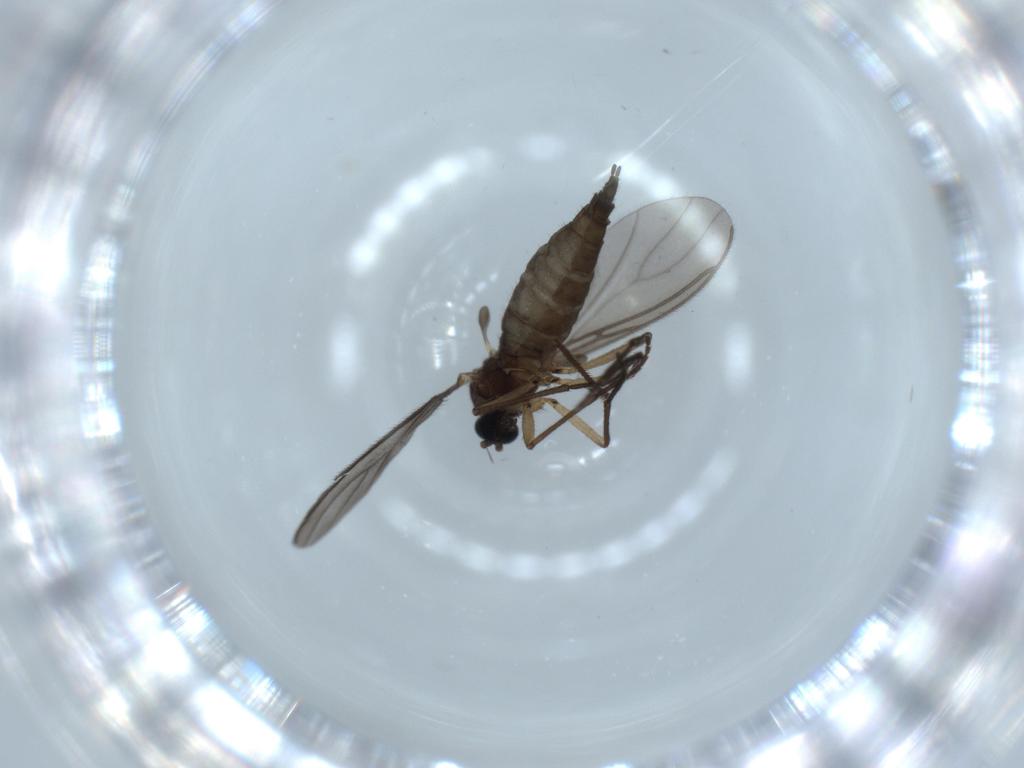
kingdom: Animalia
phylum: Arthropoda
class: Insecta
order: Diptera
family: Sciaridae
